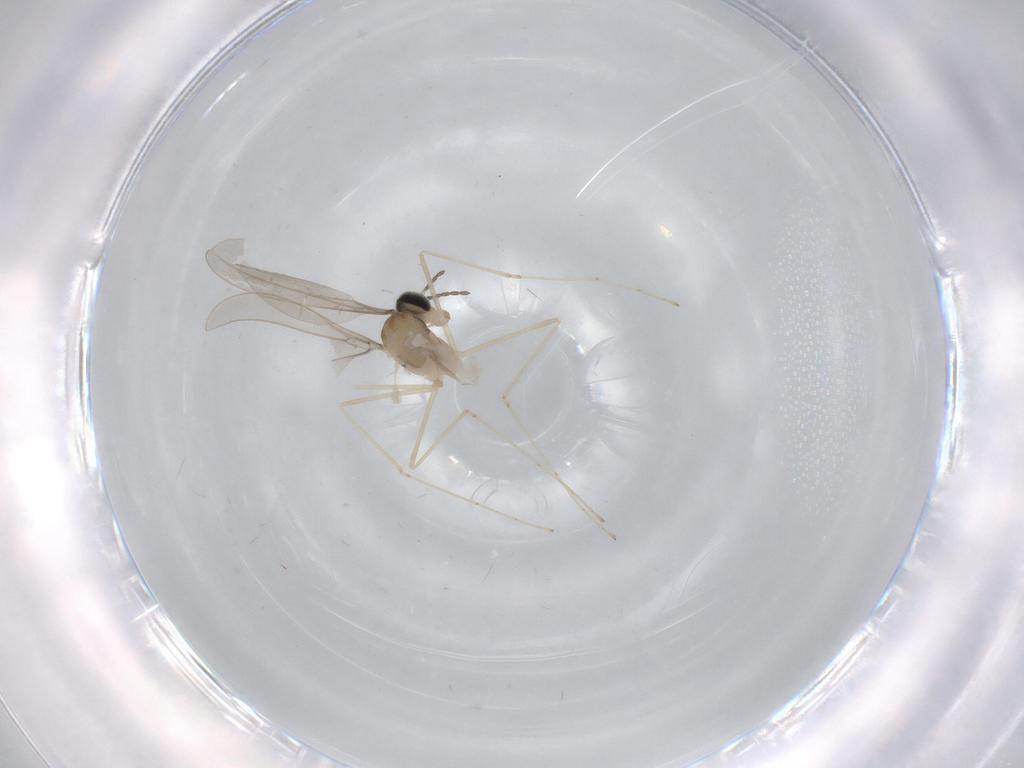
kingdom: Animalia
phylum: Arthropoda
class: Insecta
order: Diptera
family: Cecidomyiidae
